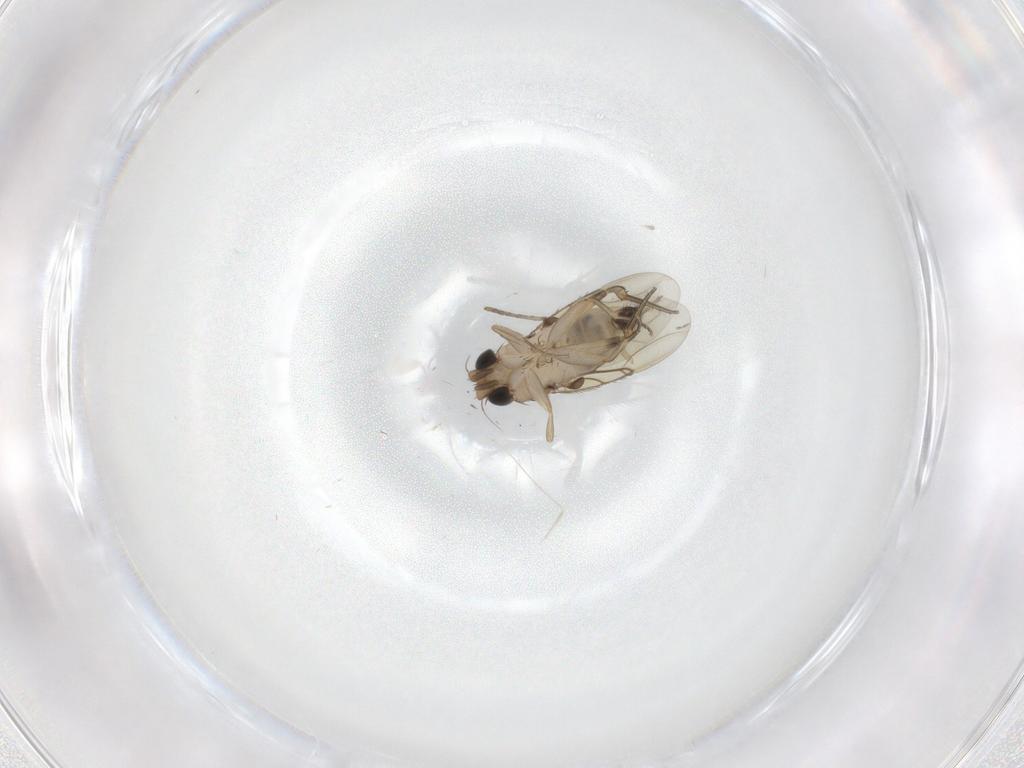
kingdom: Animalia
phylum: Arthropoda
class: Insecta
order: Diptera
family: Phoridae
